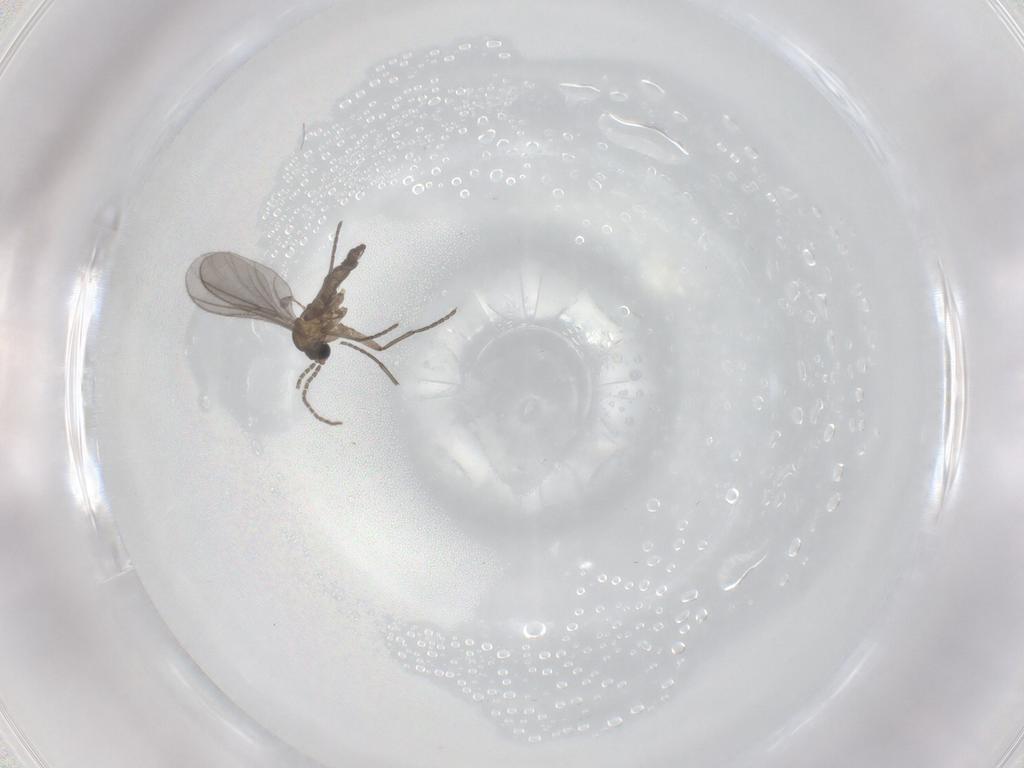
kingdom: Animalia
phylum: Arthropoda
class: Insecta
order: Diptera
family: Sciaridae
